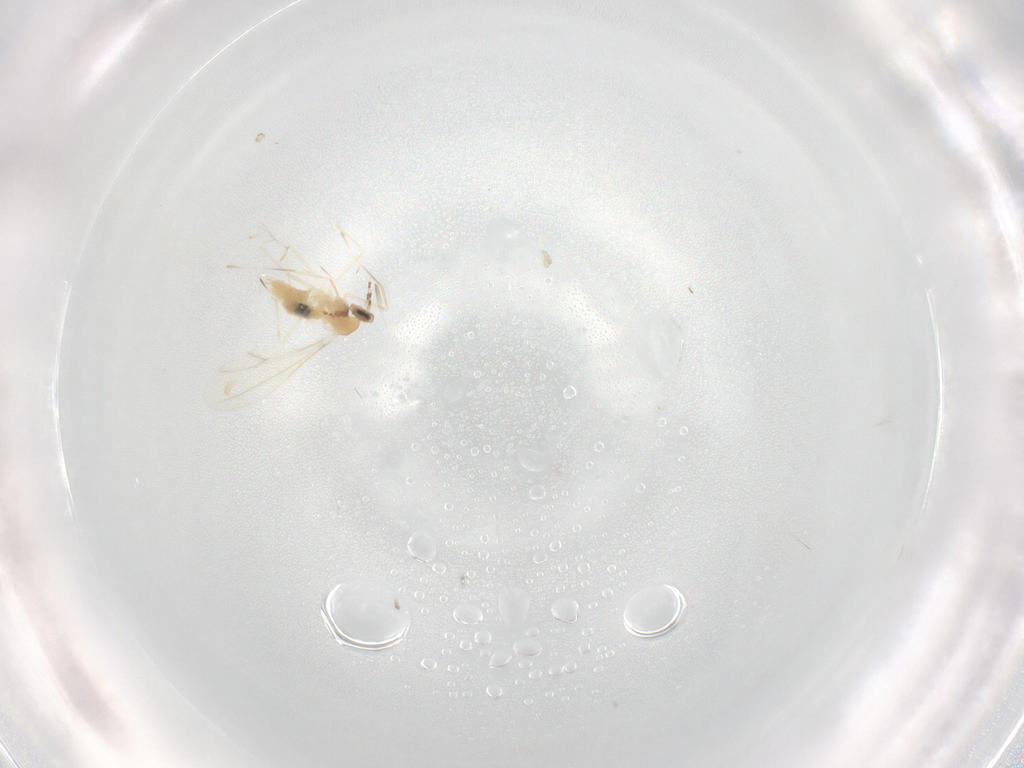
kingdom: Animalia
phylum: Arthropoda
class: Insecta
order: Diptera
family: Cecidomyiidae
